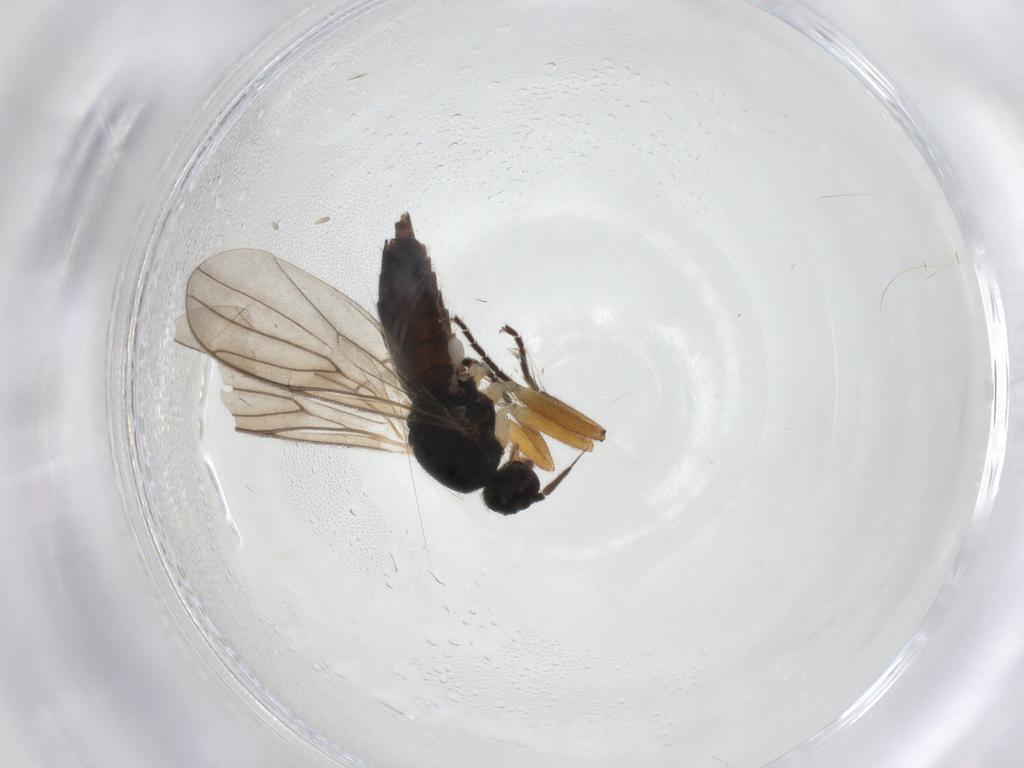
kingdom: Animalia
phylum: Arthropoda
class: Insecta
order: Diptera
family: Hybotidae
